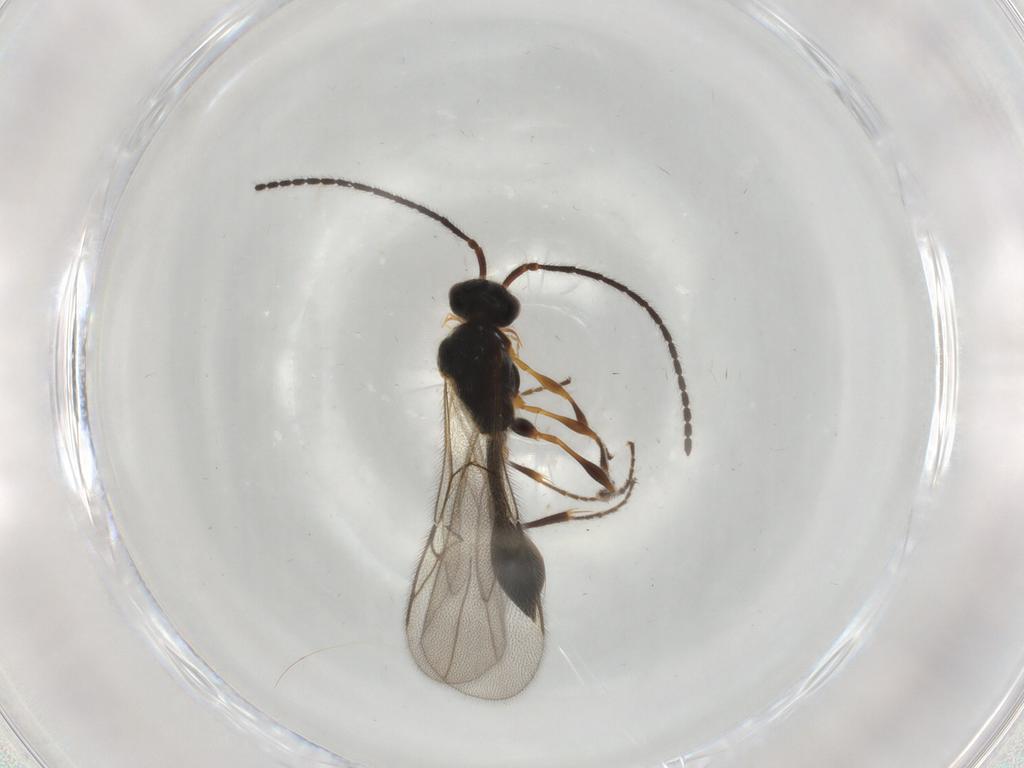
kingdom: Animalia
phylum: Arthropoda
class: Insecta
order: Hymenoptera
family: Diapriidae
